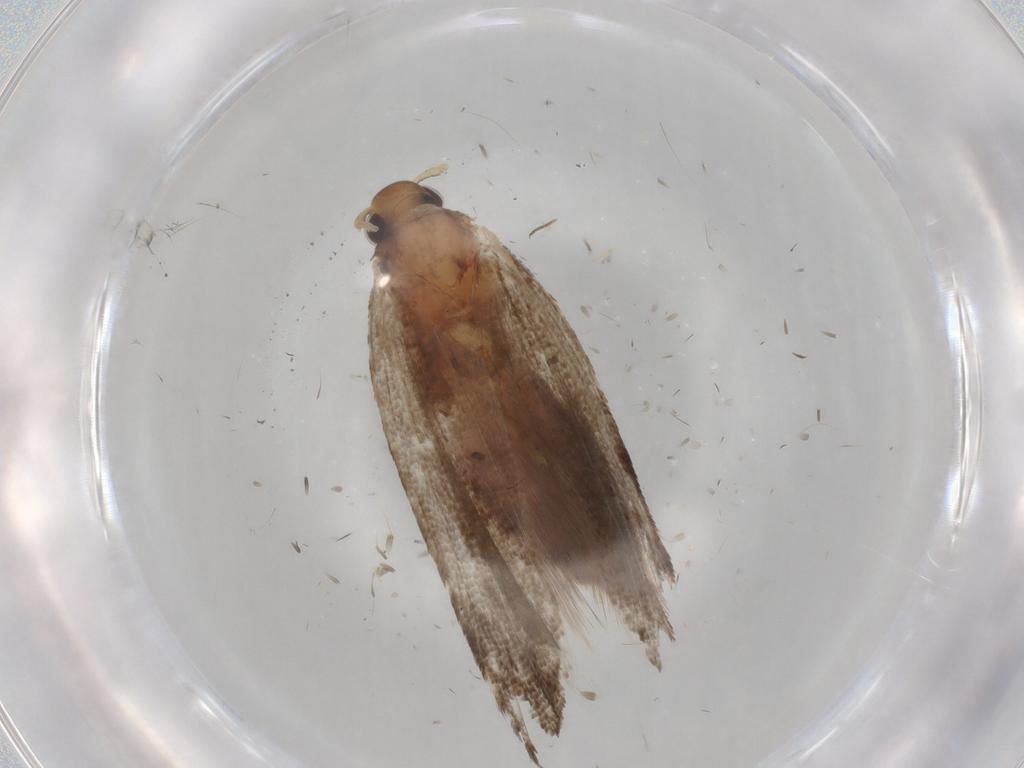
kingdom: Animalia
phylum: Arthropoda
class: Insecta
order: Lepidoptera
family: Lecithoceridae
